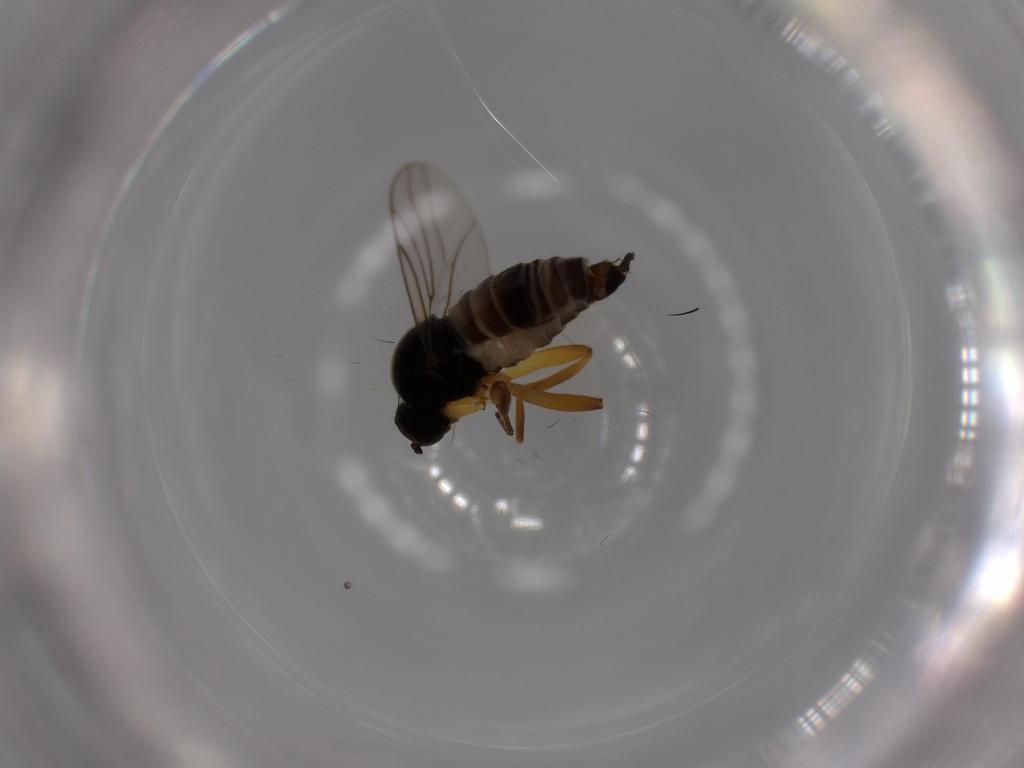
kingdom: Animalia
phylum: Arthropoda
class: Insecta
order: Diptera
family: Hybotidae
